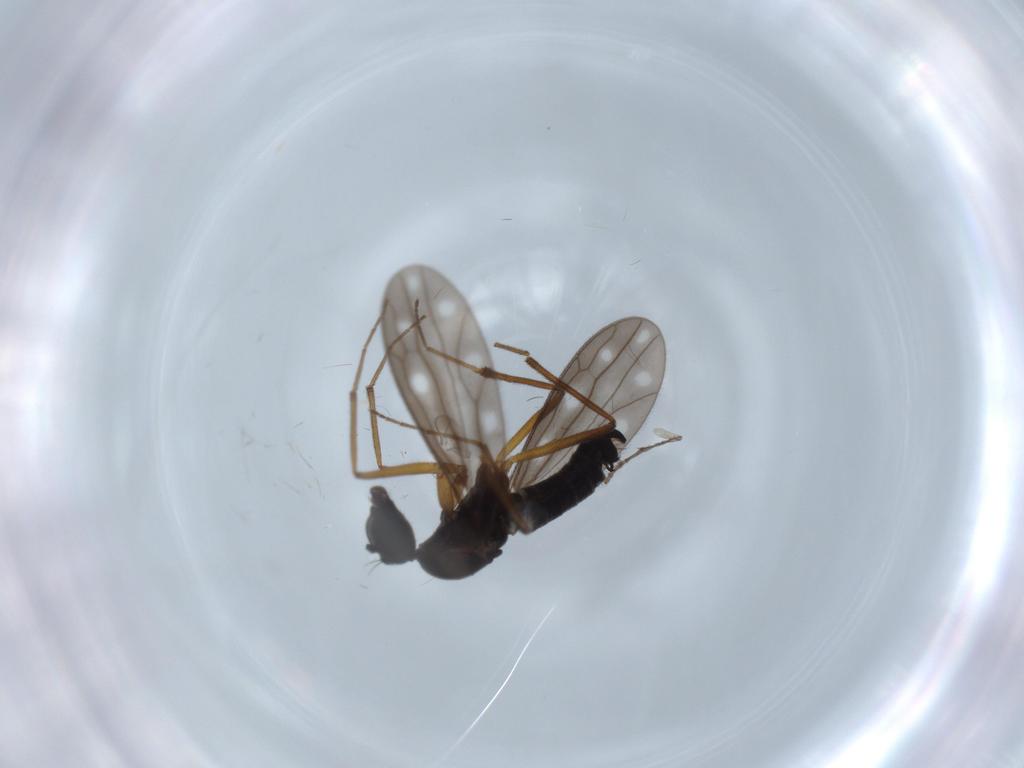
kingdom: Animalia
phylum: Arthropoda
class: Insecta
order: Diptera
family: Empididae
